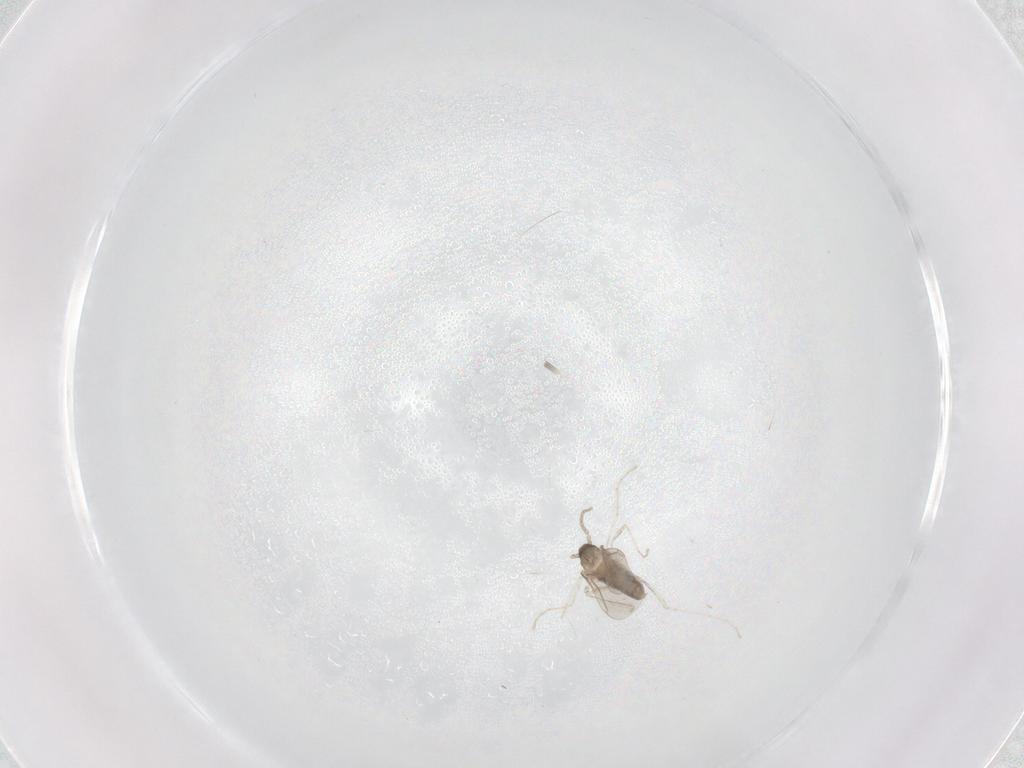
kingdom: Animalia
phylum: Arthropoda
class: Insecta
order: Diptera
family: Cecidomyiidae
